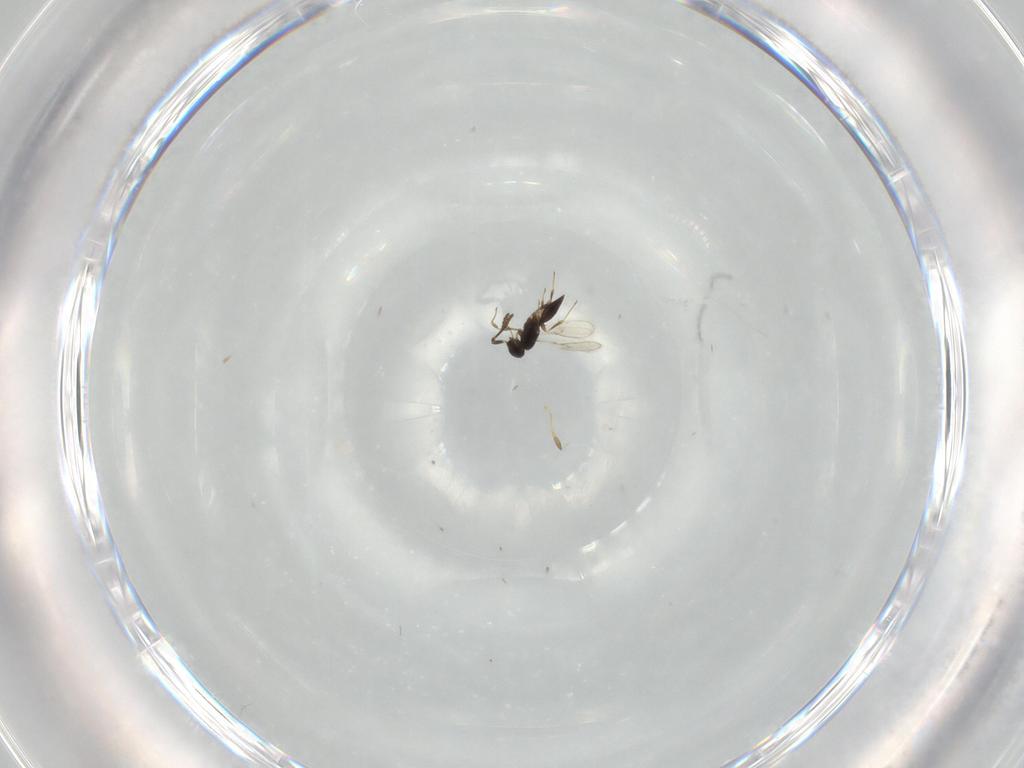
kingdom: Animalia
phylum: Arthropoda
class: Insecta
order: Hymenoptera
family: Scelionidae
